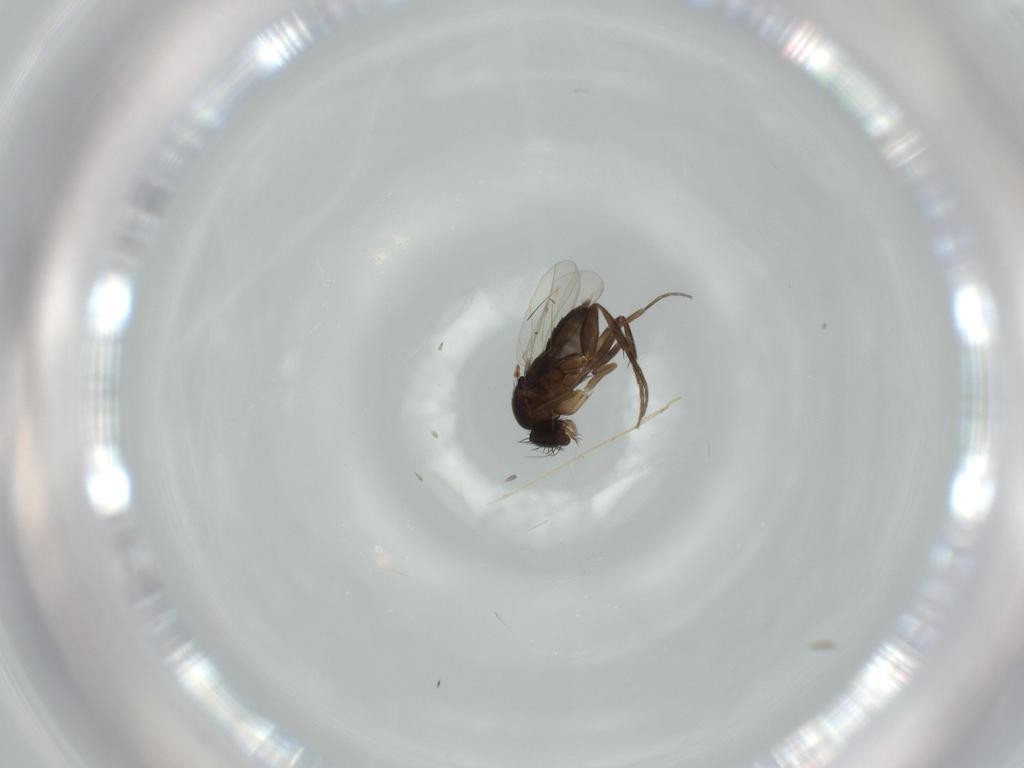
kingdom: Animalia
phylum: Arthropoda
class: Insecta
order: Diptera
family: Phoridae
